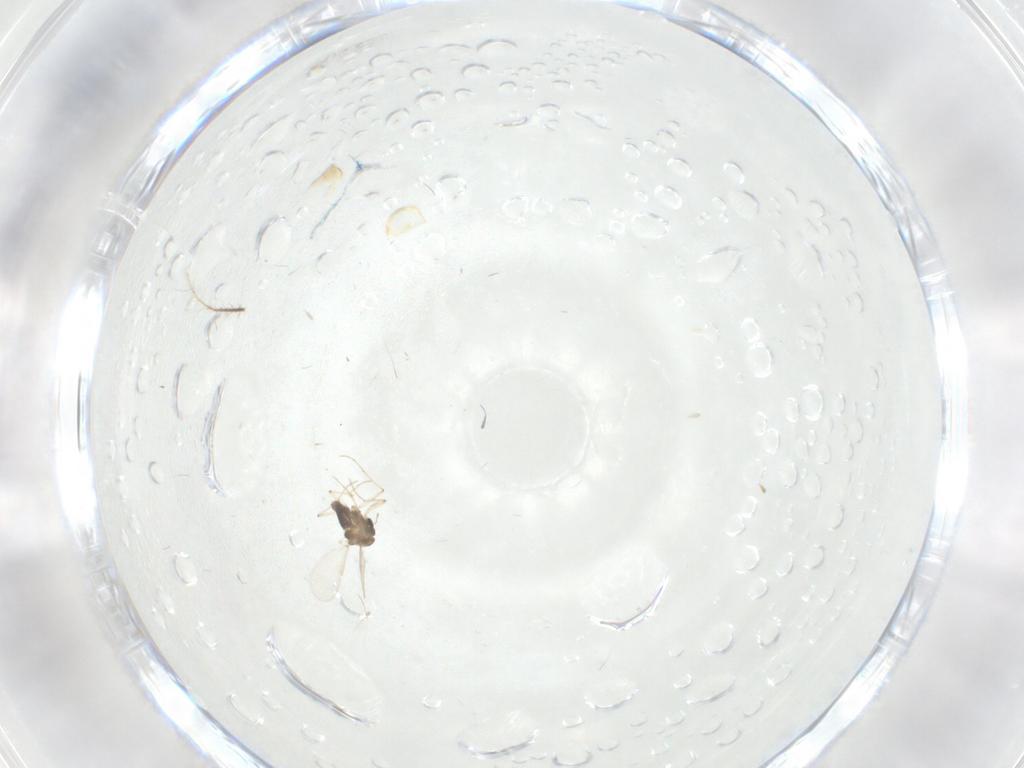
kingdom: Animalia
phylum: Arthropoda
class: Insecta
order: Diptera
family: Chironomidae
